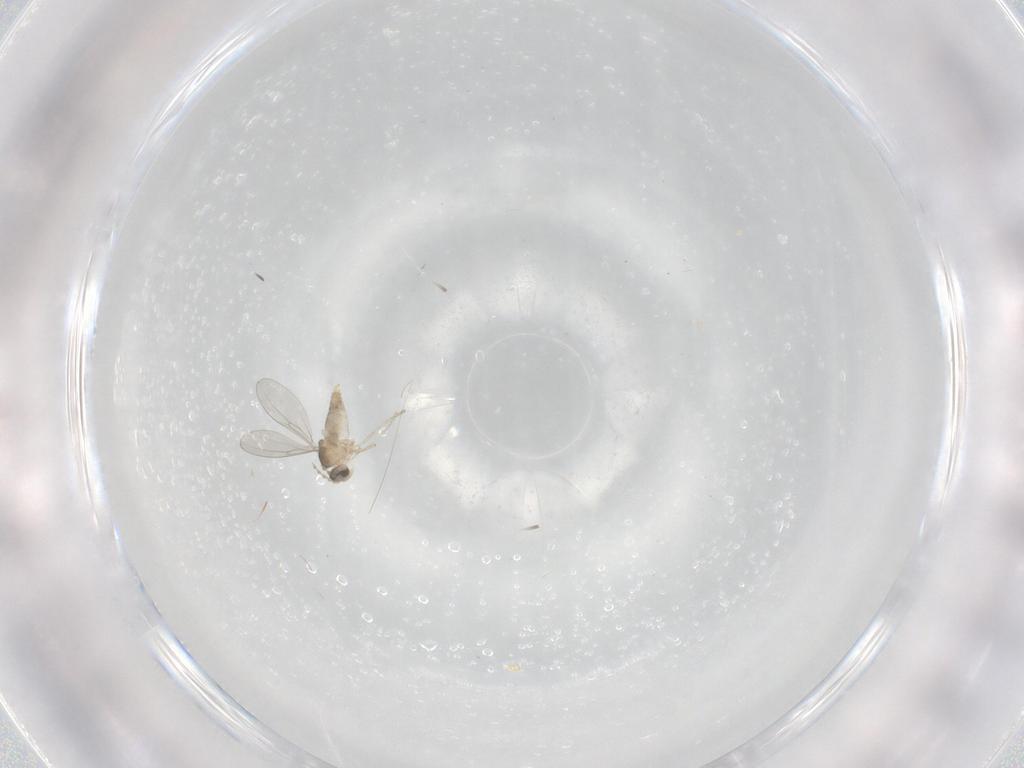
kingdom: Animalia
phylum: Arthropoda
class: Insecta
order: Diptera
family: Cecidomyiidae
